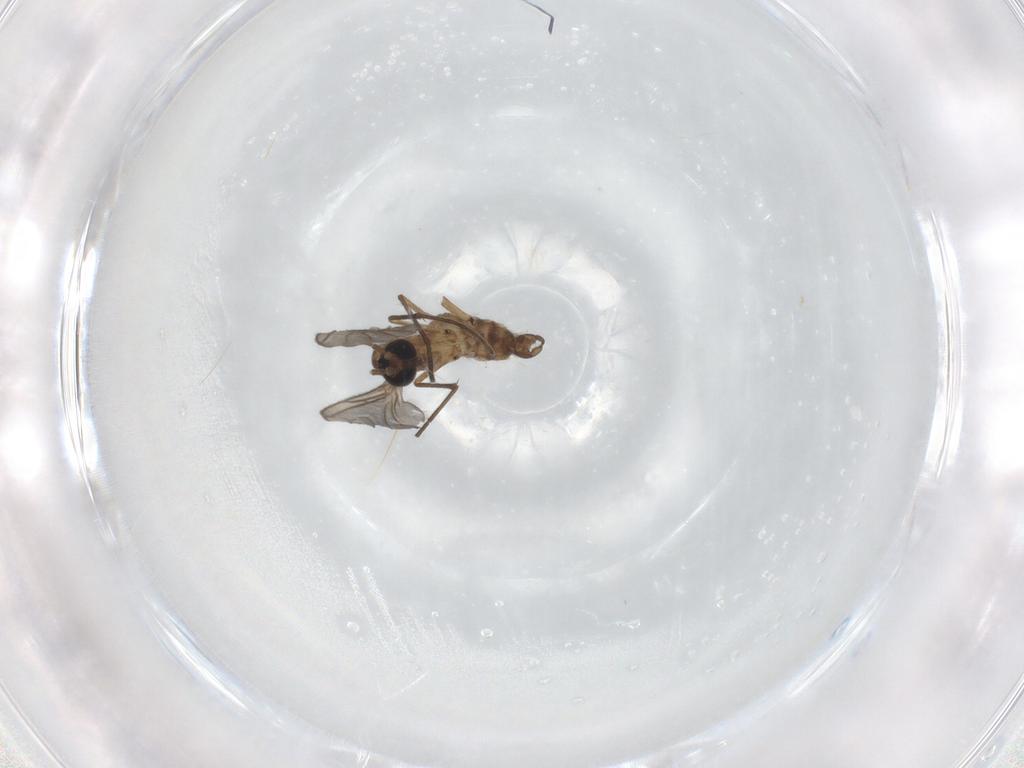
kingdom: Animalia
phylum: Arthropoda
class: Insecta
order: Diptera
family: Sciaridae
